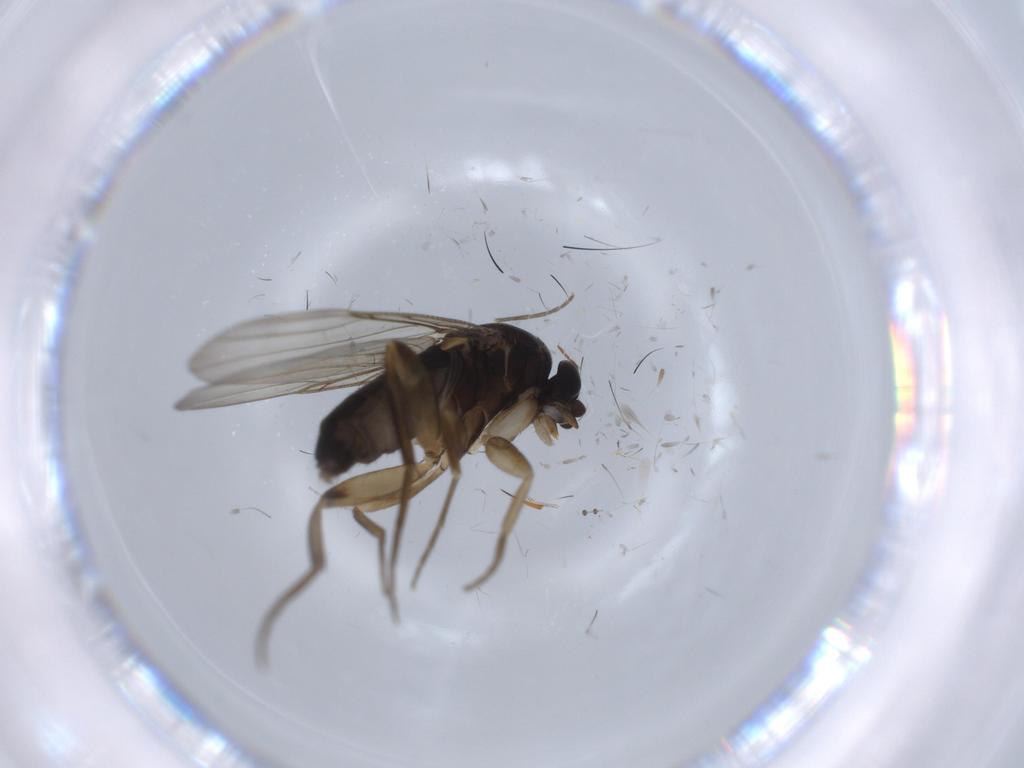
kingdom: Animalia
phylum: Arthropoda
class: Insecta
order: Diptera
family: Phoridae
